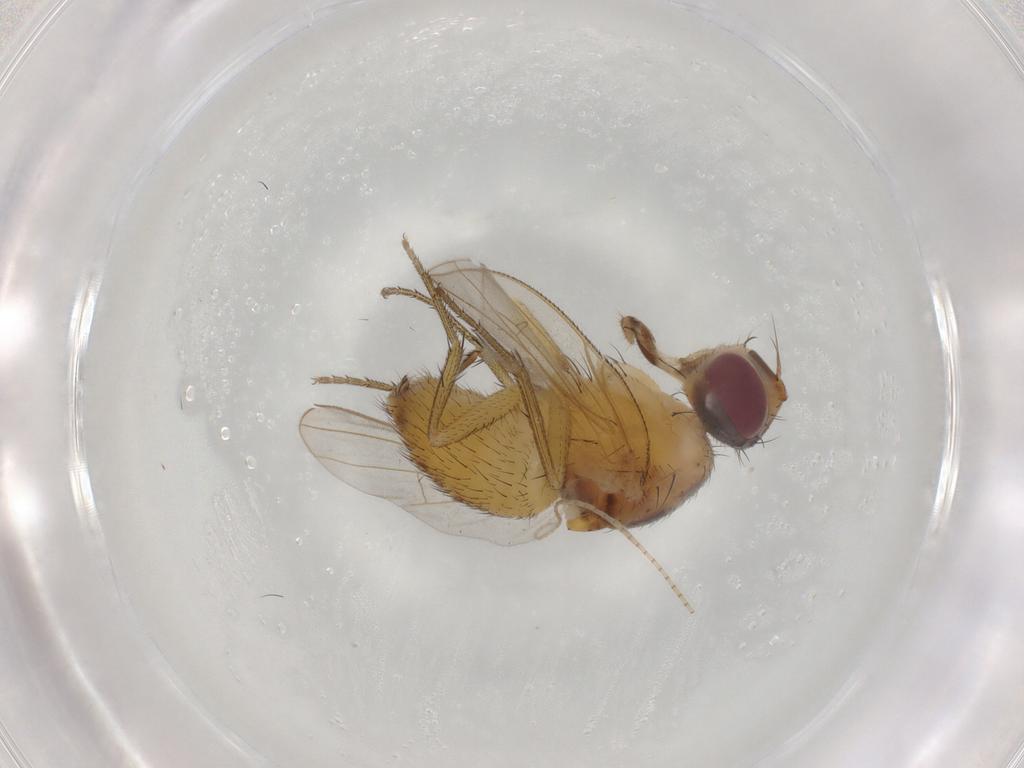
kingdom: Animalia
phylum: Arthropoda
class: Insecta
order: Diptera
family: Muscidae
